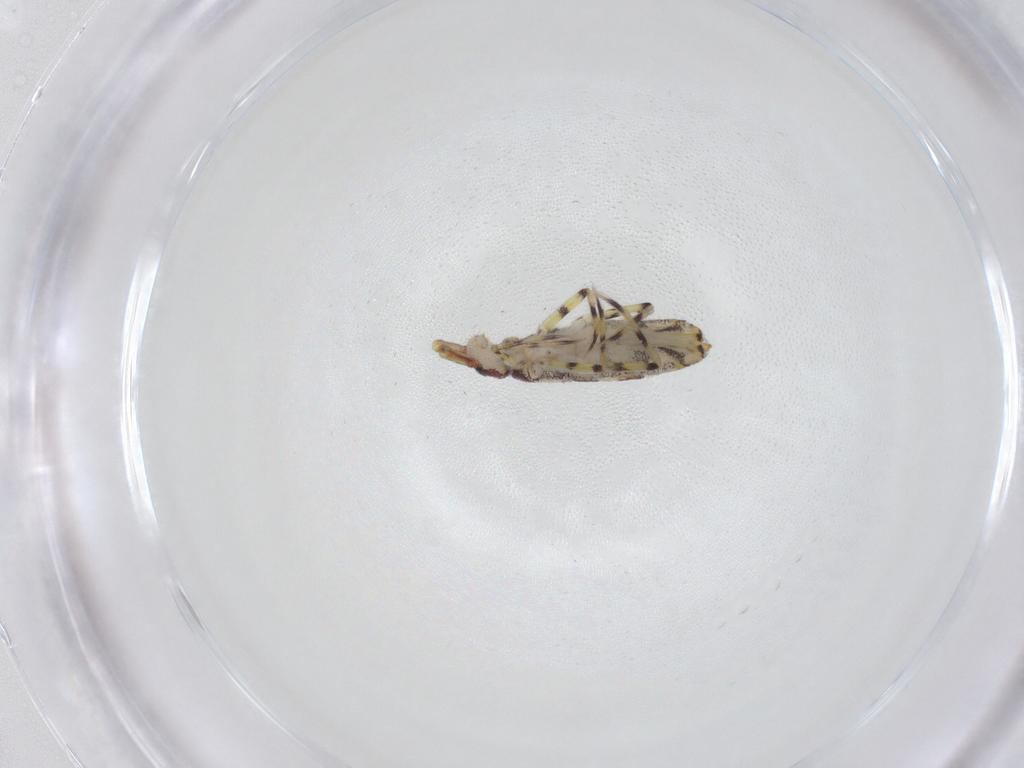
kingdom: Animalia
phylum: Arthropoda
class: Collembola
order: Entomobryomorpha
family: Entomobryidae
